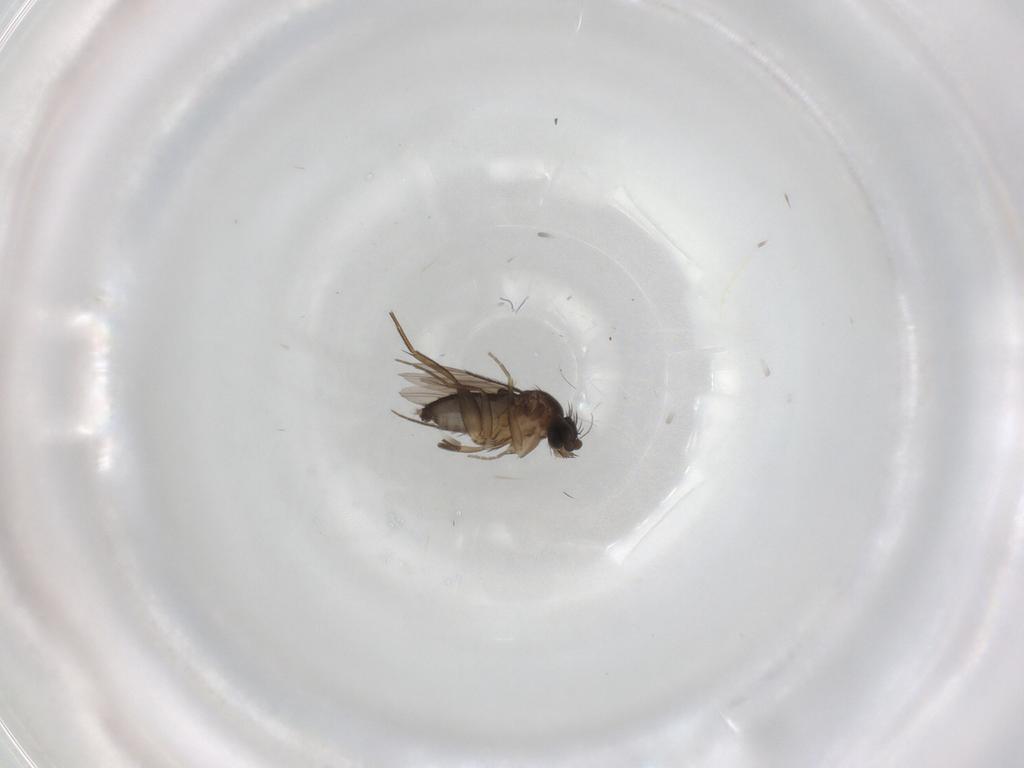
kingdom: Animalia
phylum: Arthropoda
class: Insecta
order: Diptera
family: Phoridae
